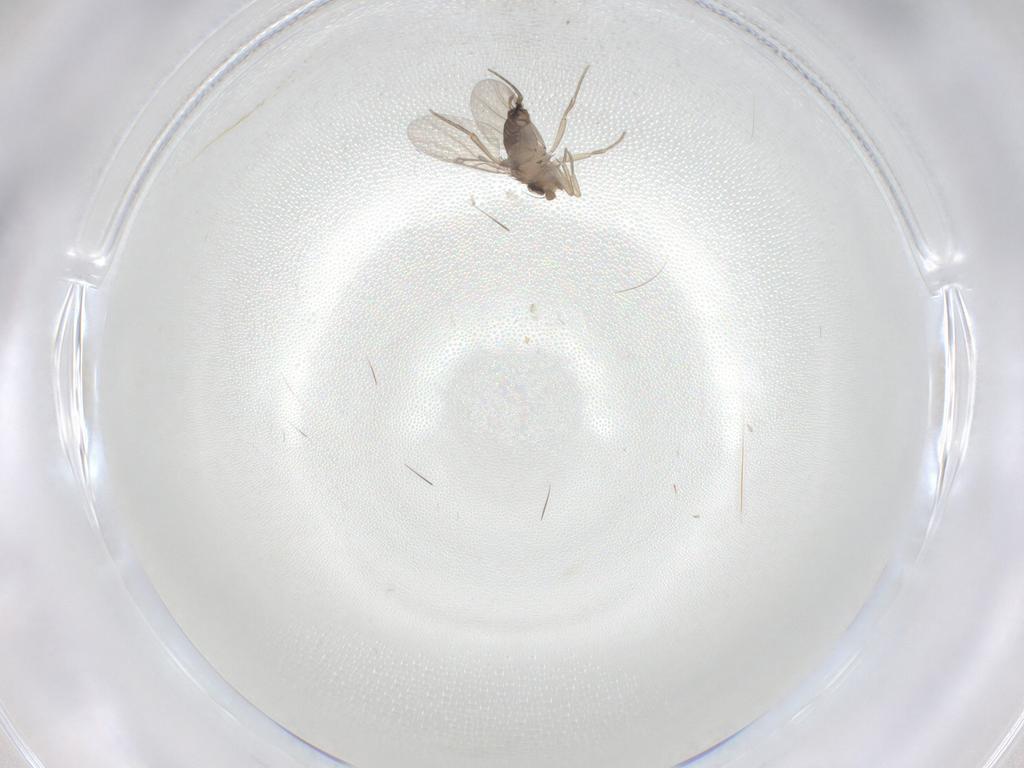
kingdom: Animalia
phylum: Arthropoda
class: Insecta
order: Diptera
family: Phoridae
